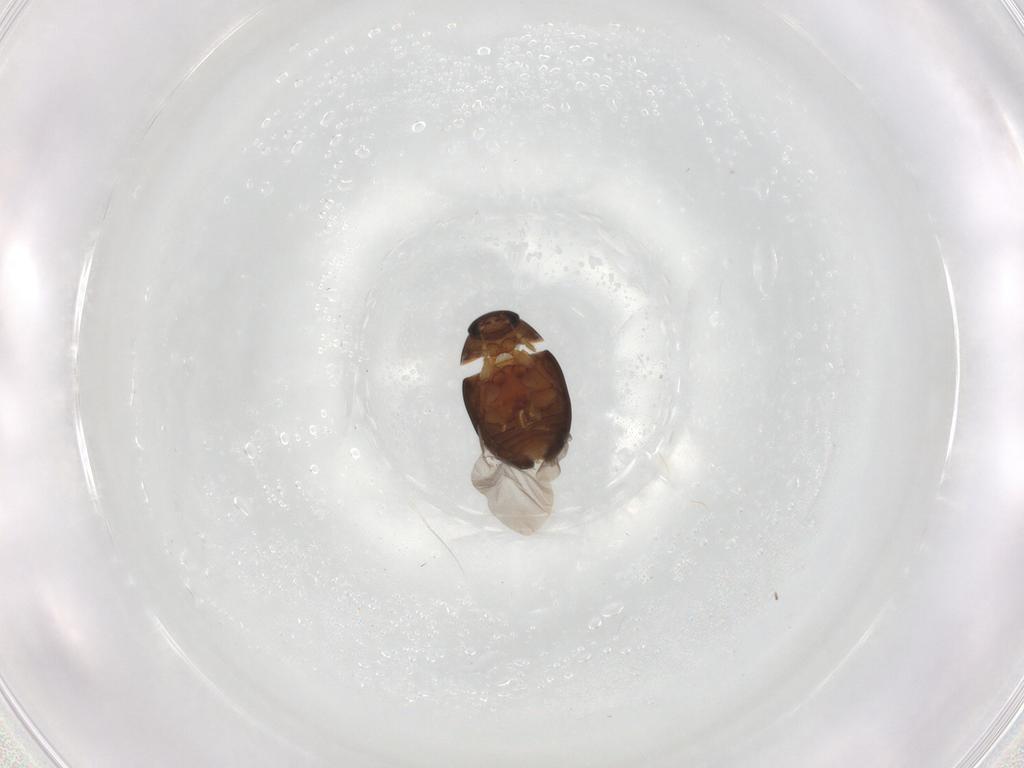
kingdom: Animalia
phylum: Arthropoda
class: Insecta
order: Coleoptera
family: Phalacridae
